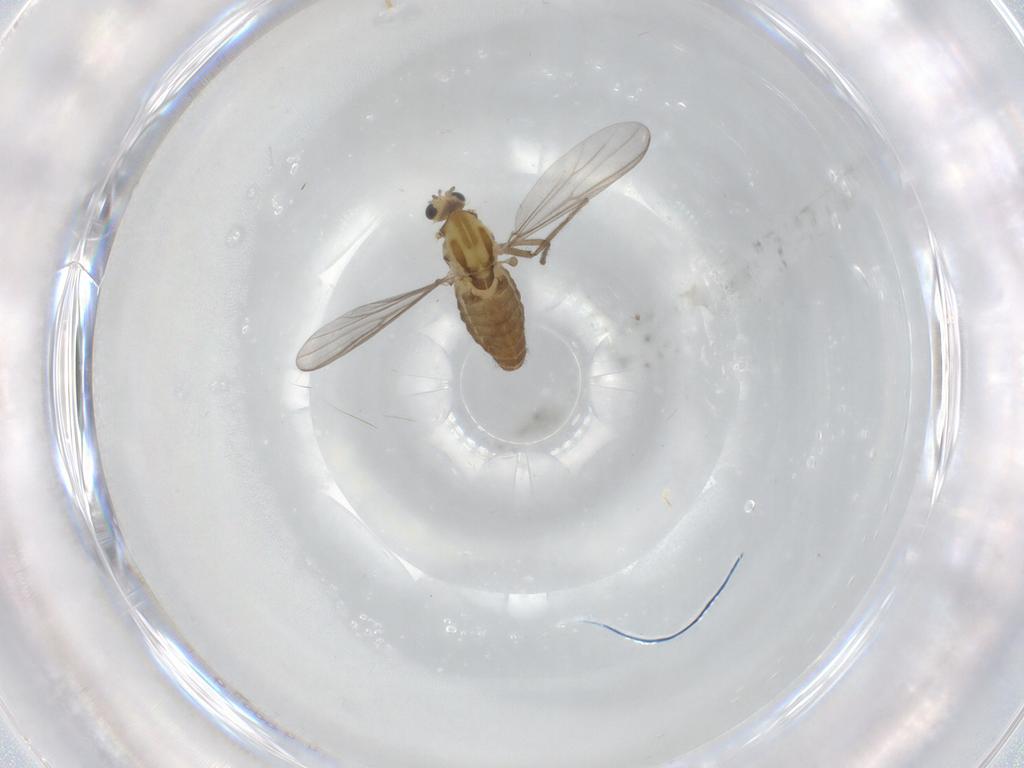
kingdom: Animalia
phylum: Arthropoda
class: Insecta
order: Diptera
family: Chironomidae
